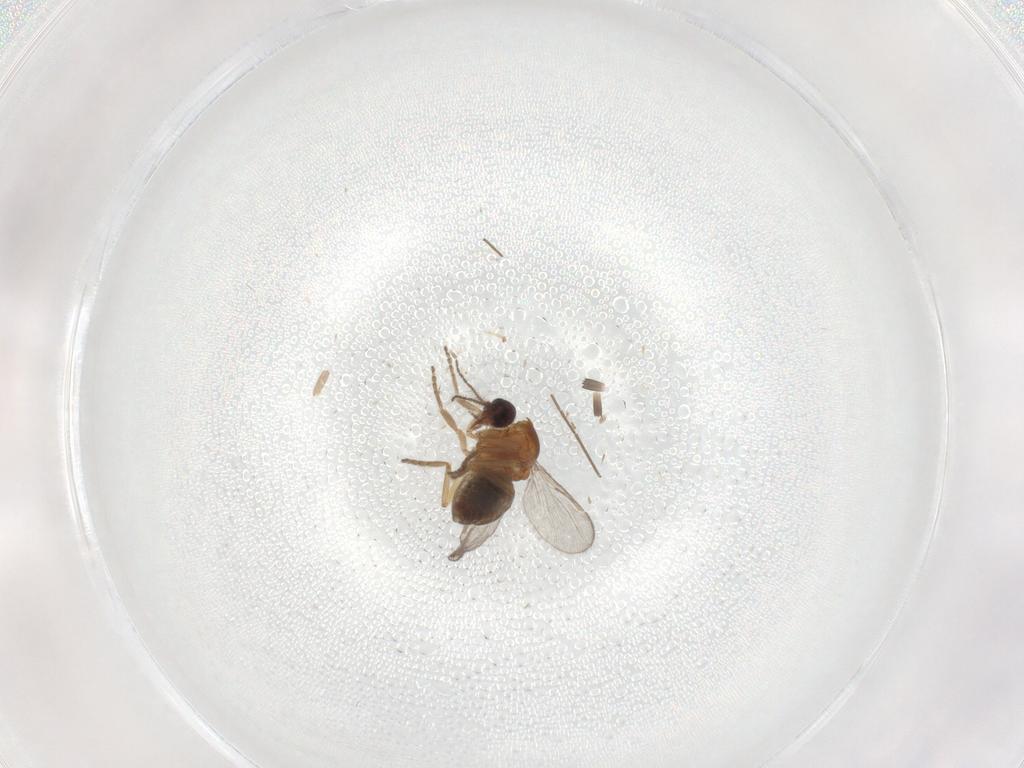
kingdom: Animalia
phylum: Arthropoda
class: Insecta
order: Diptera
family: Ceratopogonidae
